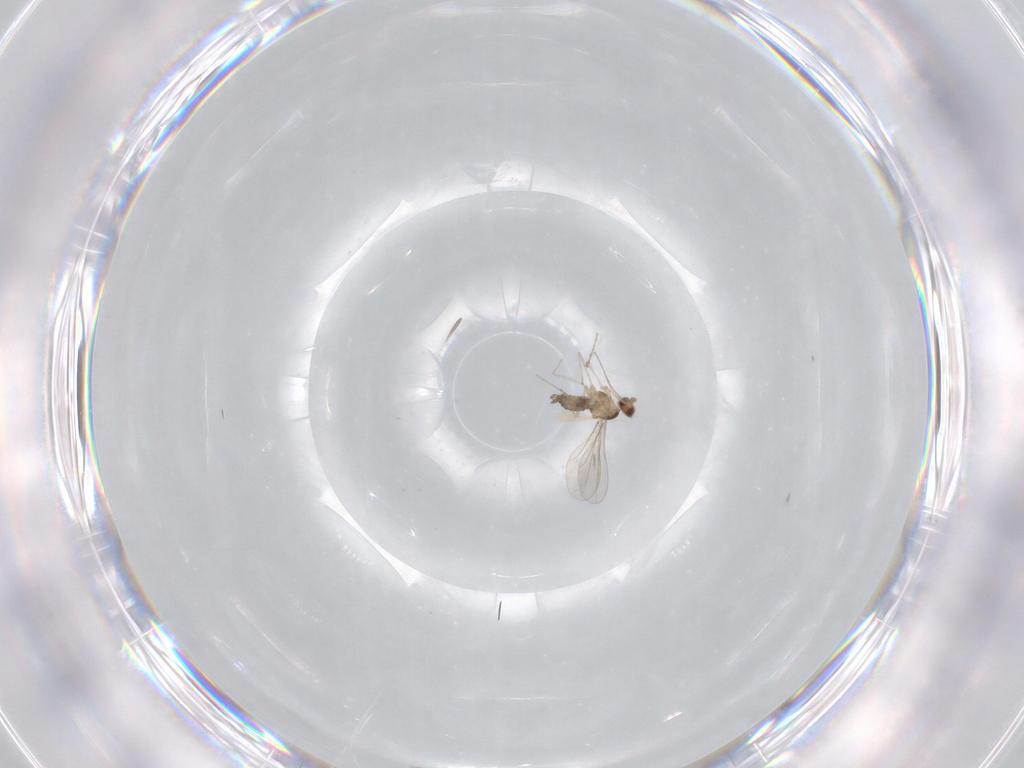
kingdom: Animalia
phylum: Arthropoda
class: Insecta
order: Diptera
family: Cecidomyiidae
